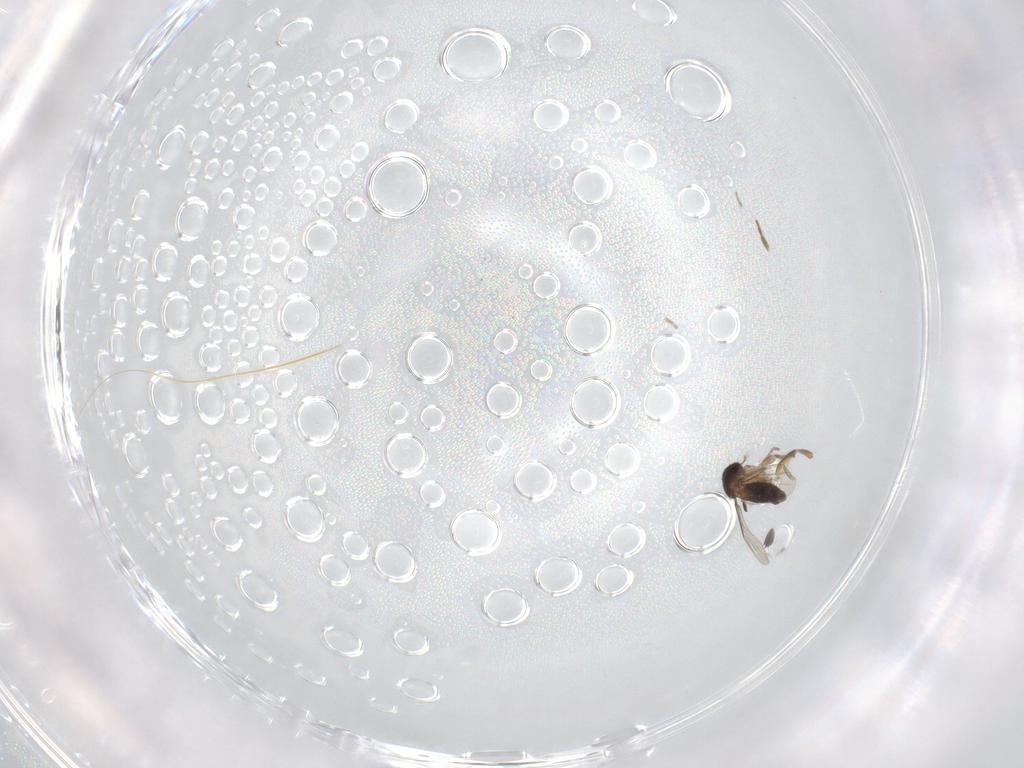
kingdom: Animalia
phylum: Arthropoda
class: Insecta
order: Diptera
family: Phoridae
